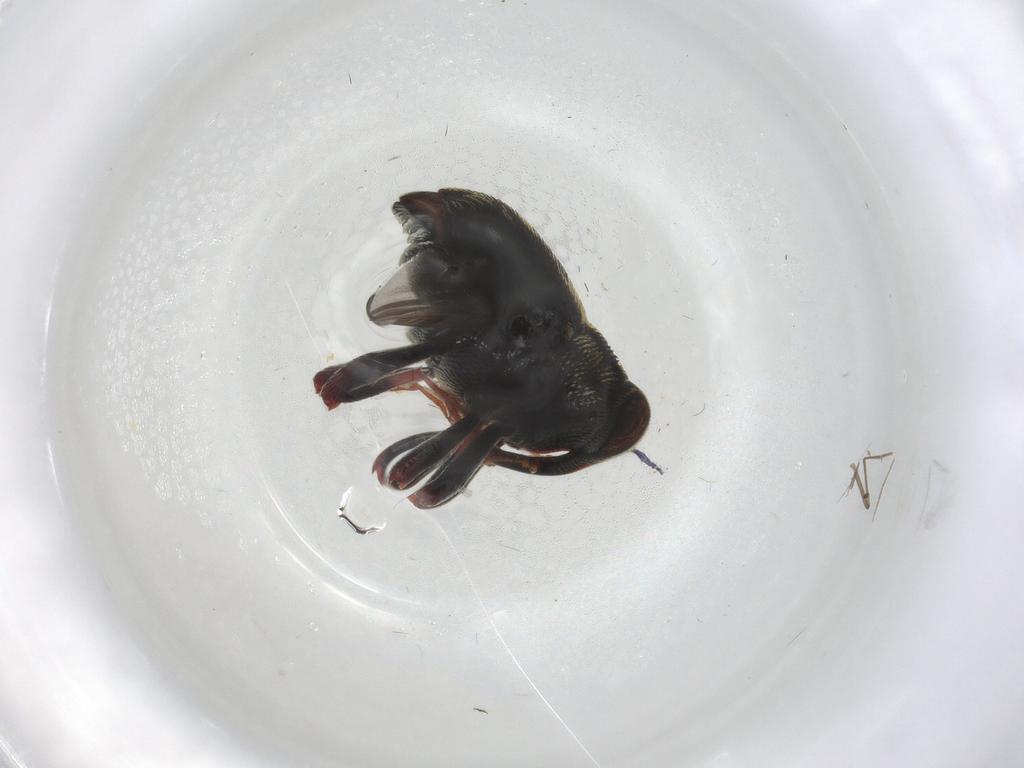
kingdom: Animalia
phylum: Arthropoda
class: Insecta
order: Coleoptera
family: Curculionidae
